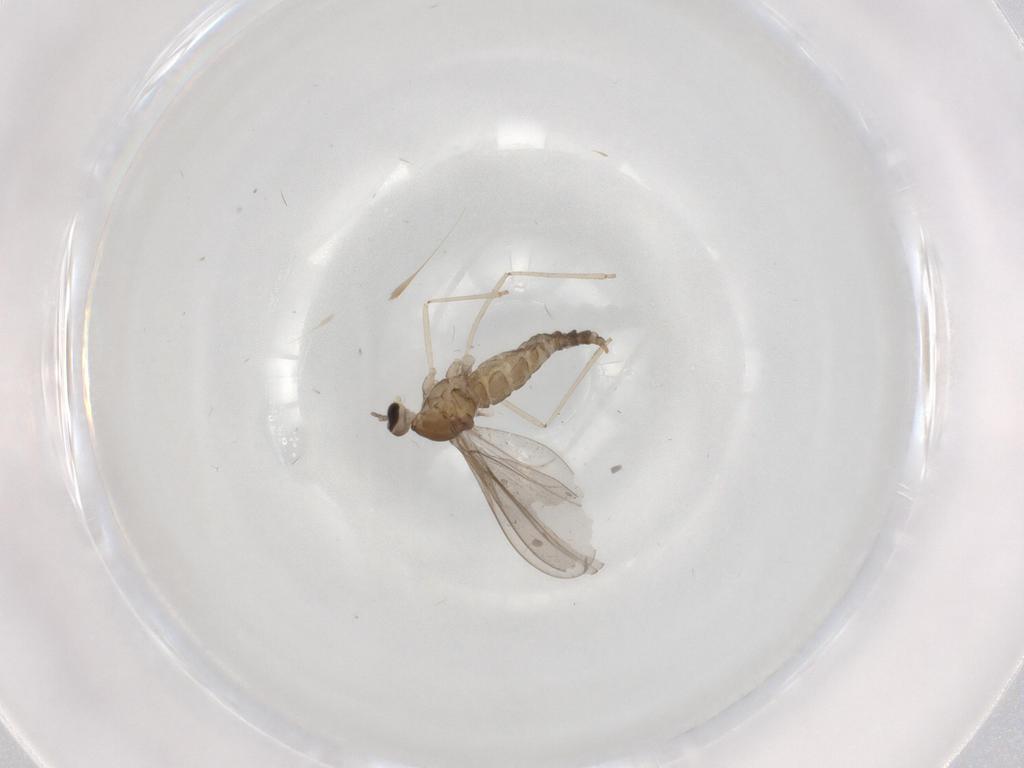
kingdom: Animalia
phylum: Arthropoda
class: Insecta
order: Diptera
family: Cecidomyiidae
